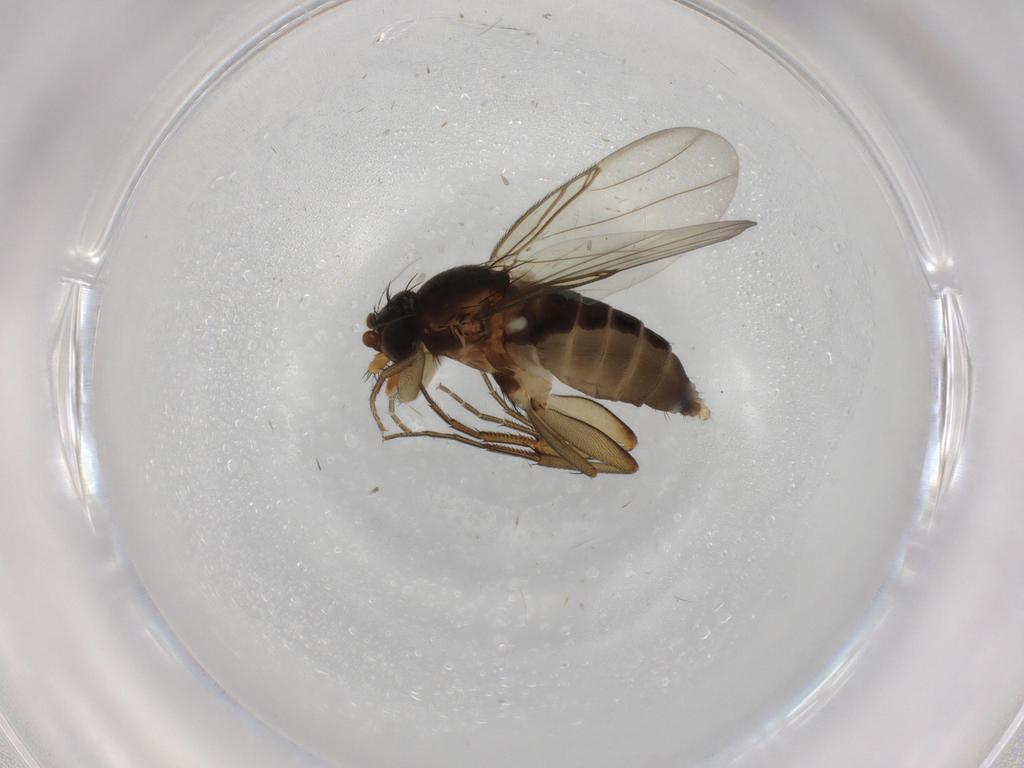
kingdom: Animalia
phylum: Arthropoda
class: Insecta
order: Diptera
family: Phoridae
